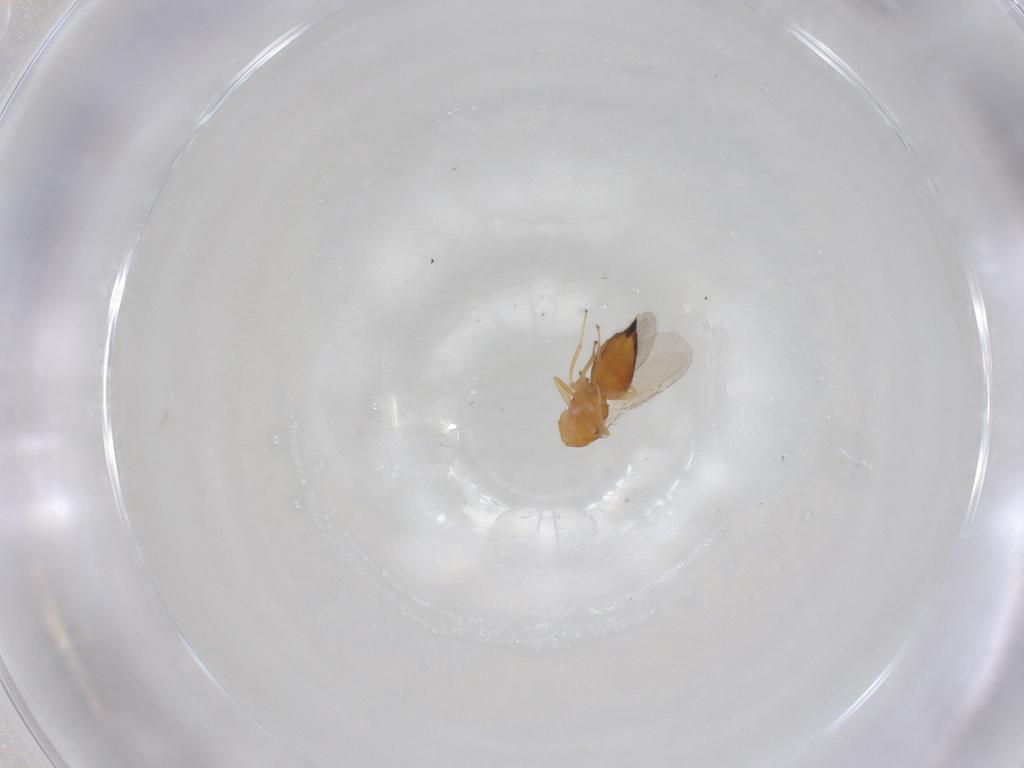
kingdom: Animalia
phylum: Arthropoda
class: Insecta
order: Hymenoptera
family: Eulophidae
